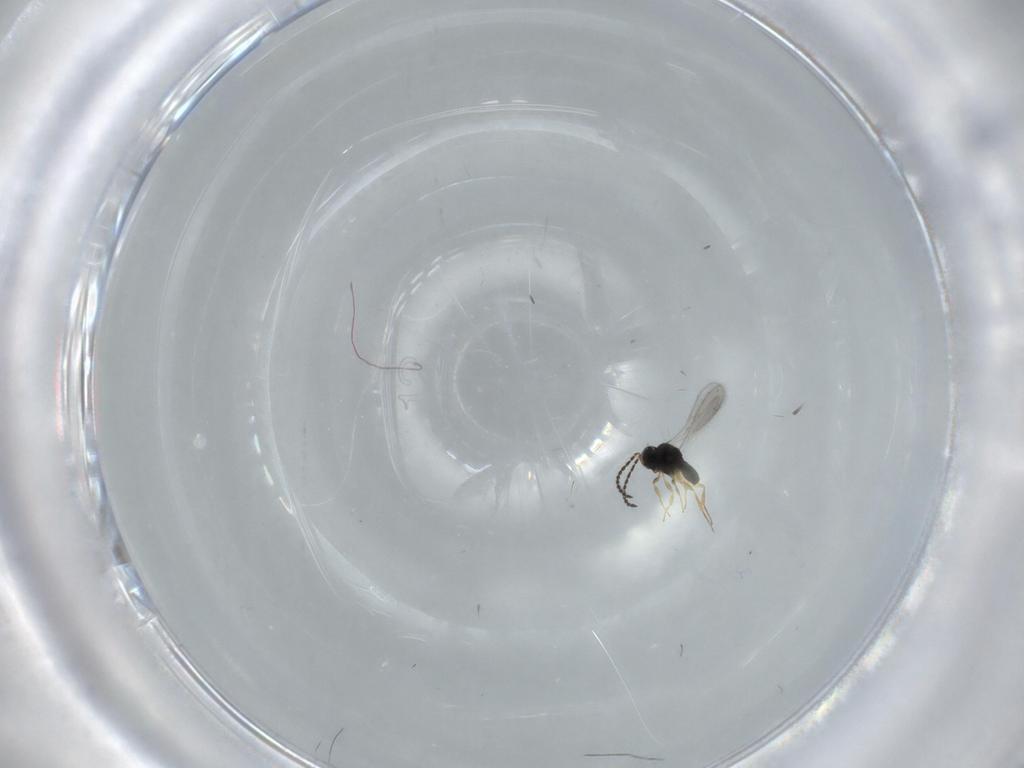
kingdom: Animalia
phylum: Arthropoda
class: Insecta
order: Hymenoptera
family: Scelionidae
